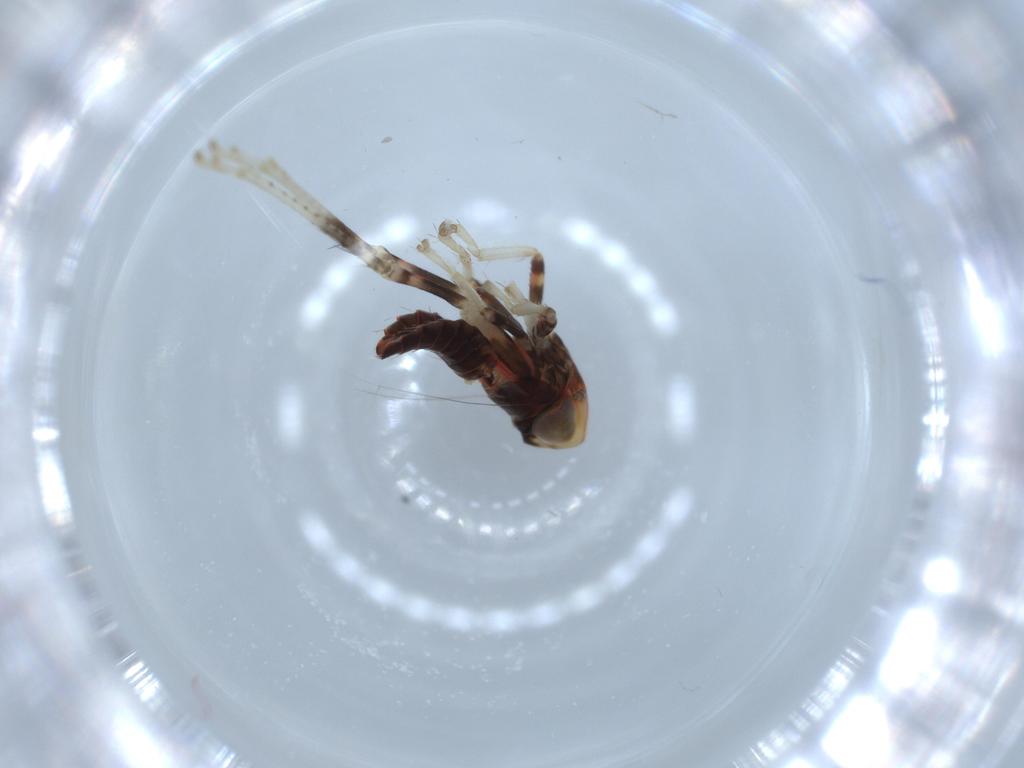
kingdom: Animalia
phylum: Arthropoda
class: Insecta
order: Hemiptera
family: Cicadellidae
